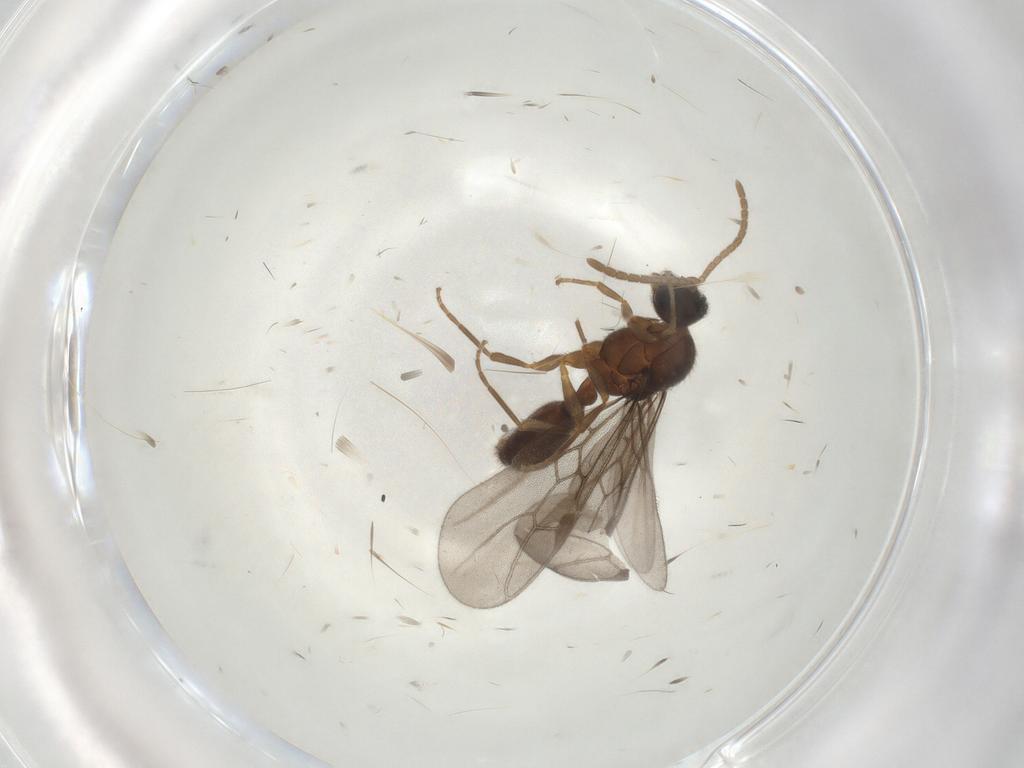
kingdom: Animalia
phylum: Arthropoda
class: Insecta
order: Hymenoptera
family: Formicidae
